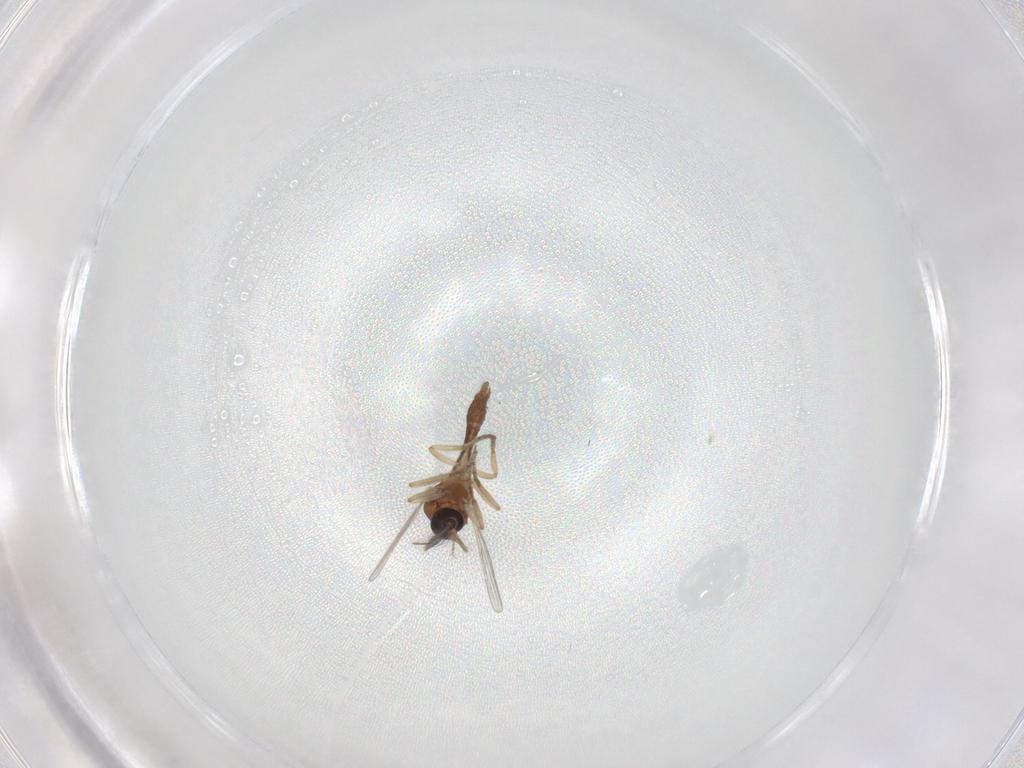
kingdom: Animalia
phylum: Arthropoda
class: Insecta
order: Diptera
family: Ceratopogonidae
